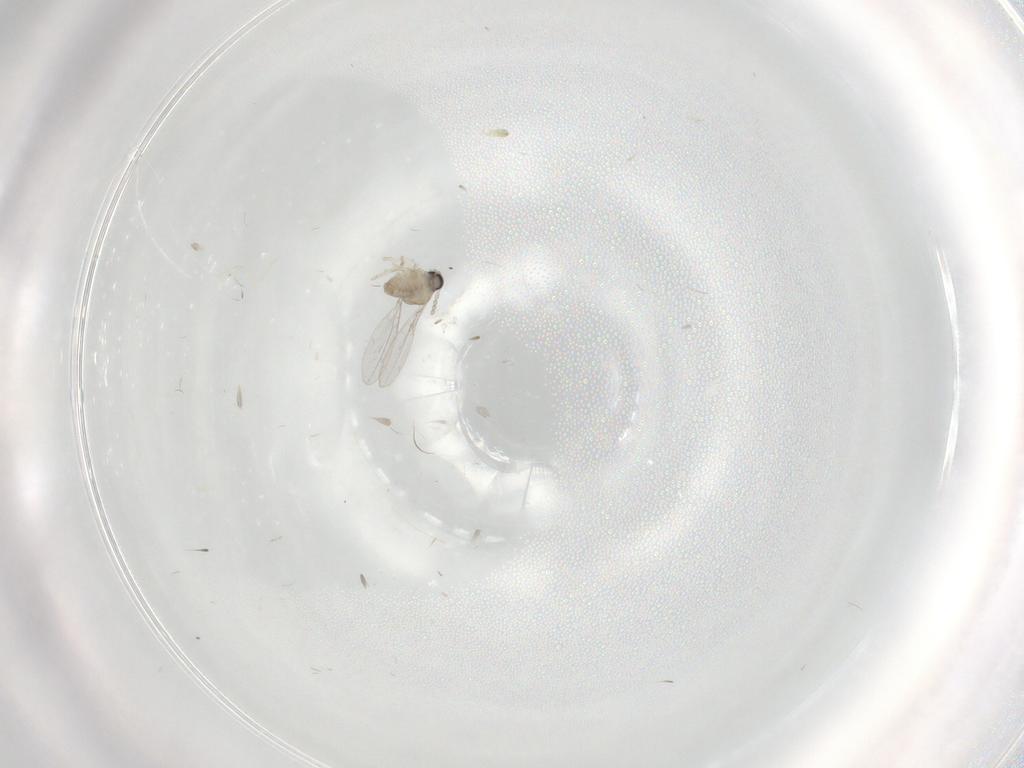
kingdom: Animalia
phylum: Arthropoda
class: Insecta
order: Diptera
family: Cecidomyiidae
